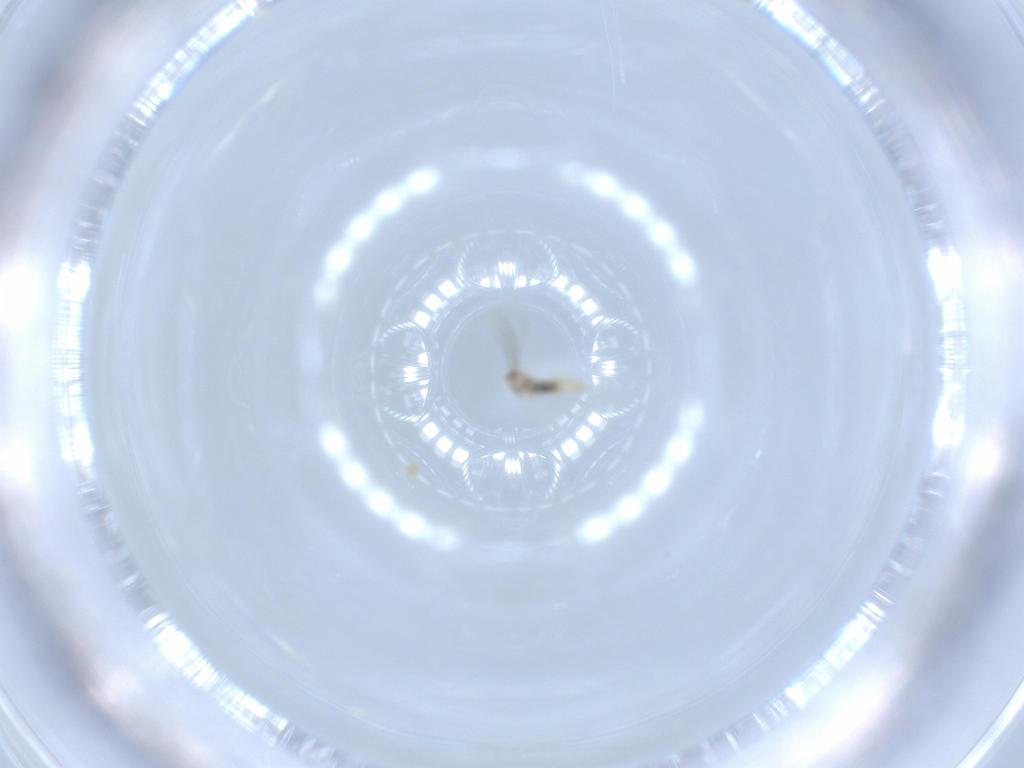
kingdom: Animalia
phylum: Arthropoda
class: Insecta
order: Diptera
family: Cecidomyiidae
